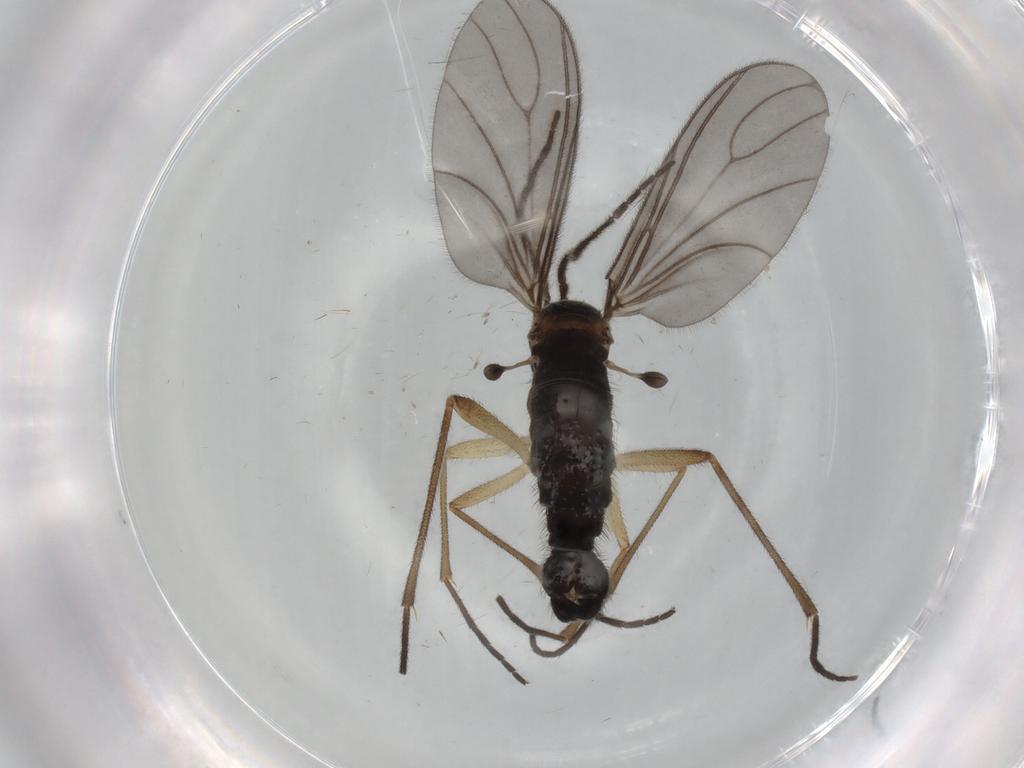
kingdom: Animalia
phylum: Arthropoda
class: Insecta
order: Diptera
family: Sciaridae
